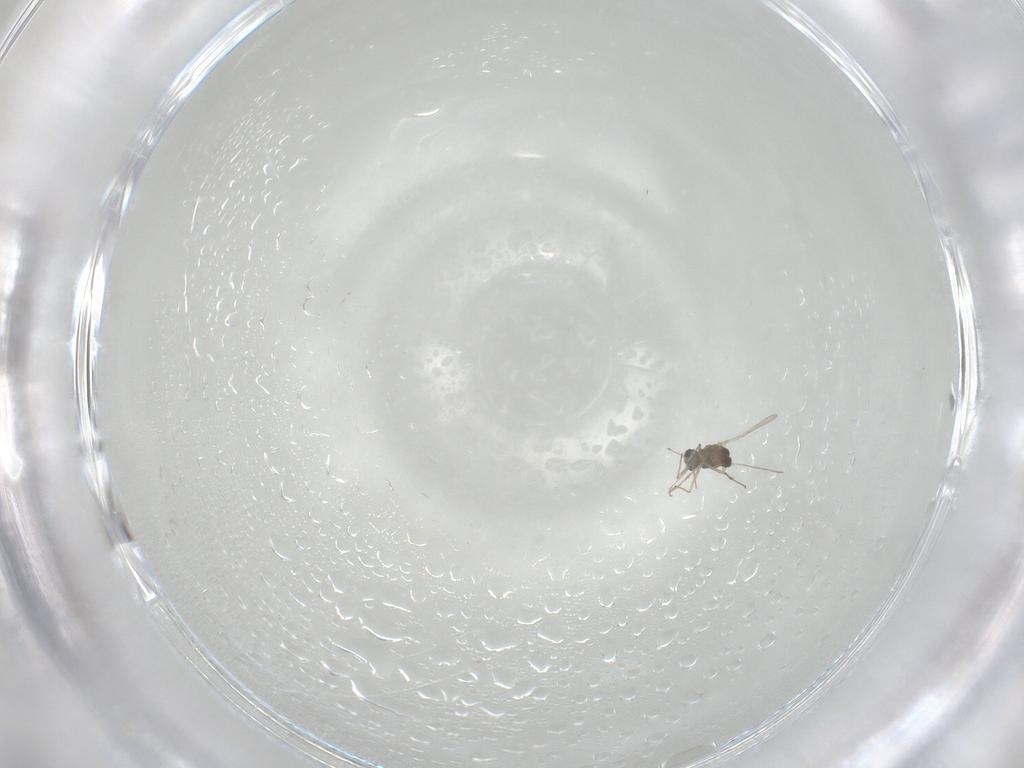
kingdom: Animalia
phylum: Arthropoda
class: Insecta
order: Diptera
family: Chironomidae
